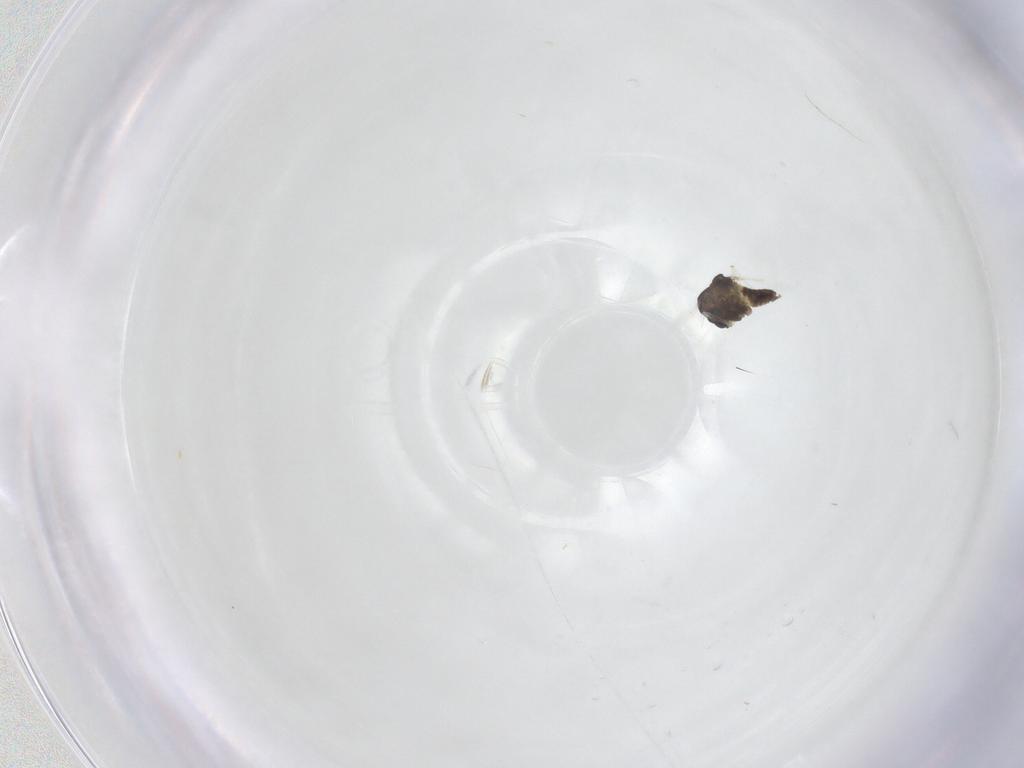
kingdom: Animalia
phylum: Arthropoda
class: Insecta
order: Diptera
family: Chironomidae
